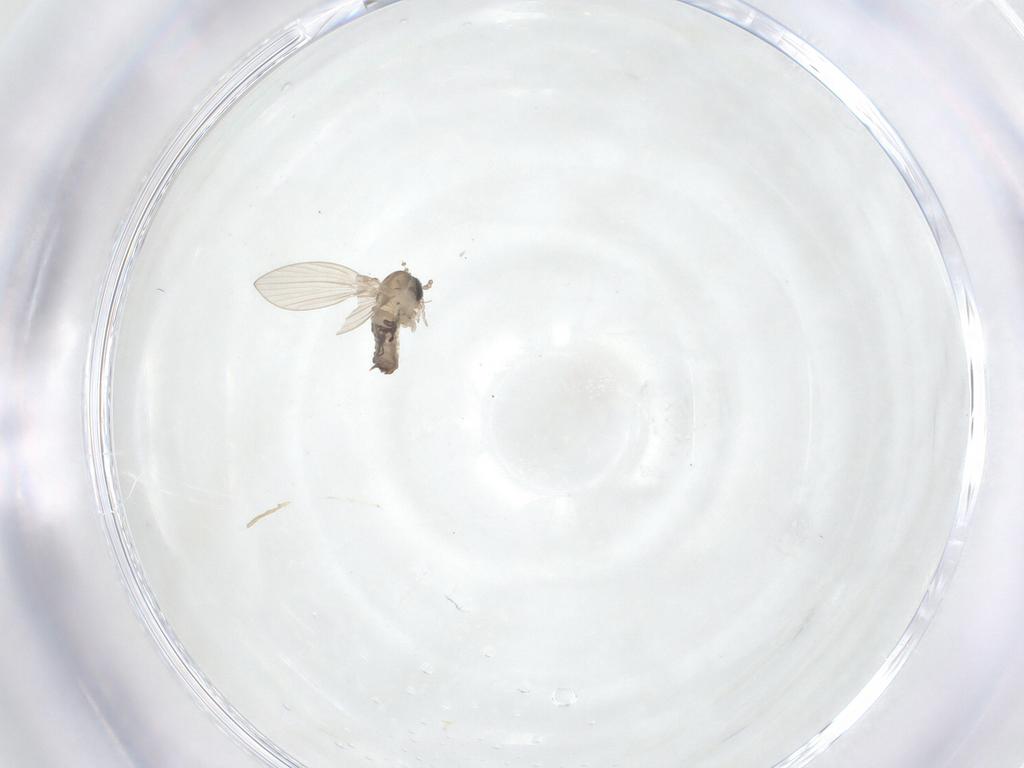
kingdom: Animalia
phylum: Arthropoda
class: Insecta
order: Diptera
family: Psychodidae
